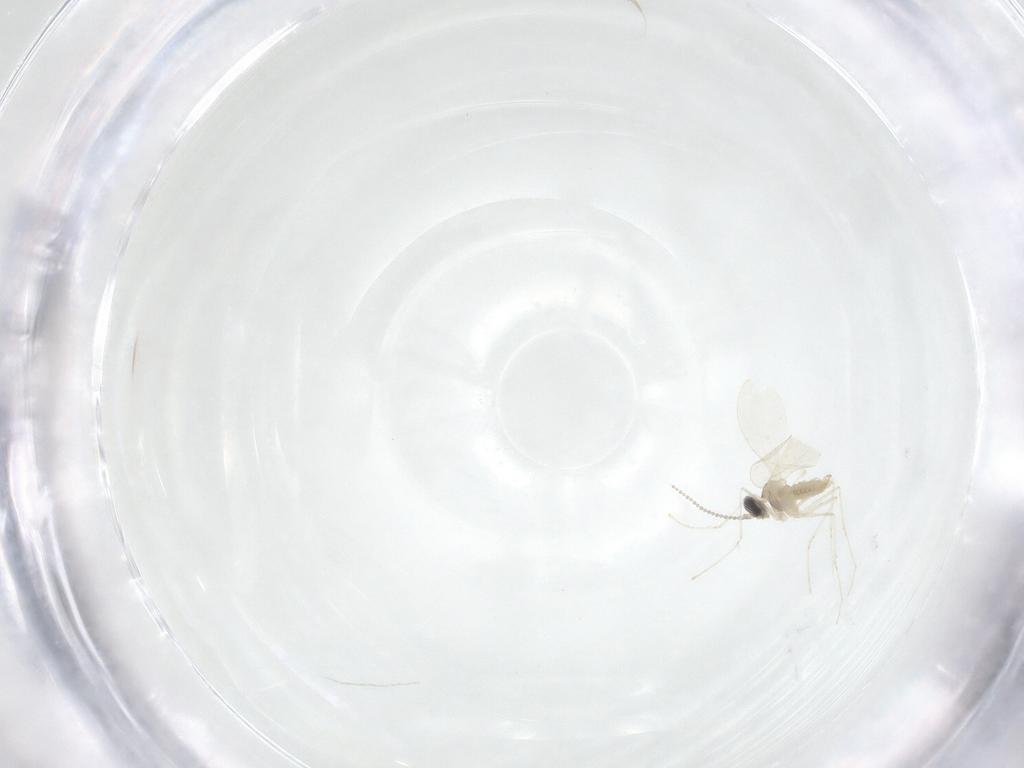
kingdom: Animalia
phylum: Arthropoda
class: Insecta
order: Diptera
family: Cecidomyiidae
